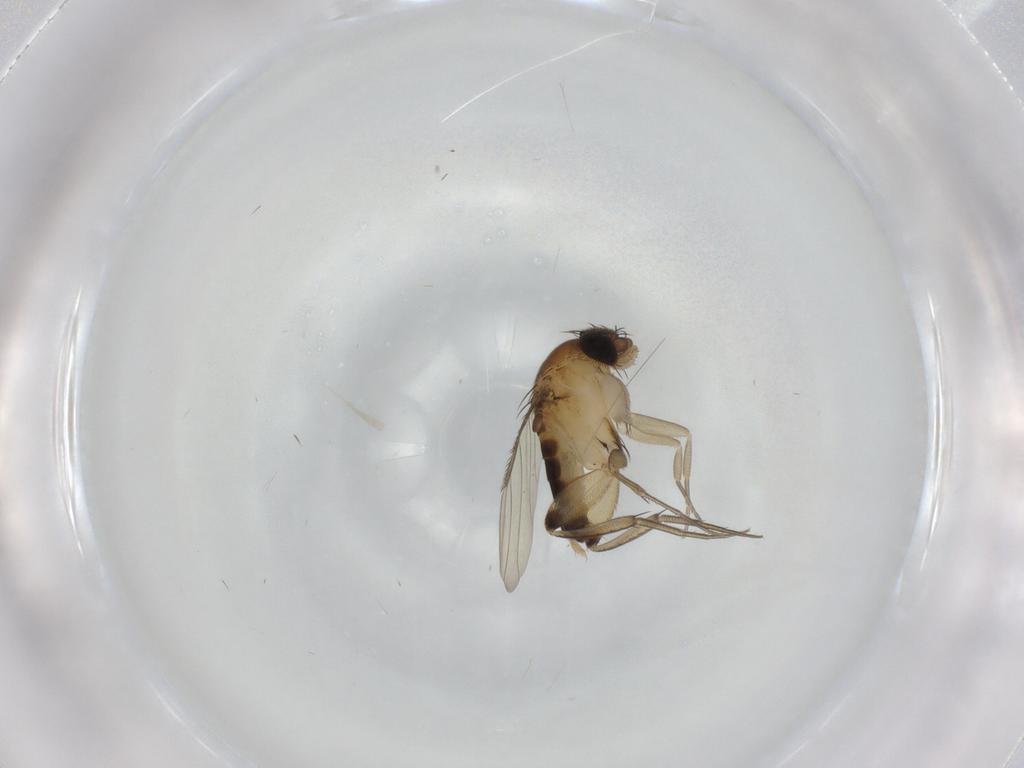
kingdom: Animalia
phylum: Arthropoda
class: Insecta
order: Diptera
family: Phoridae
